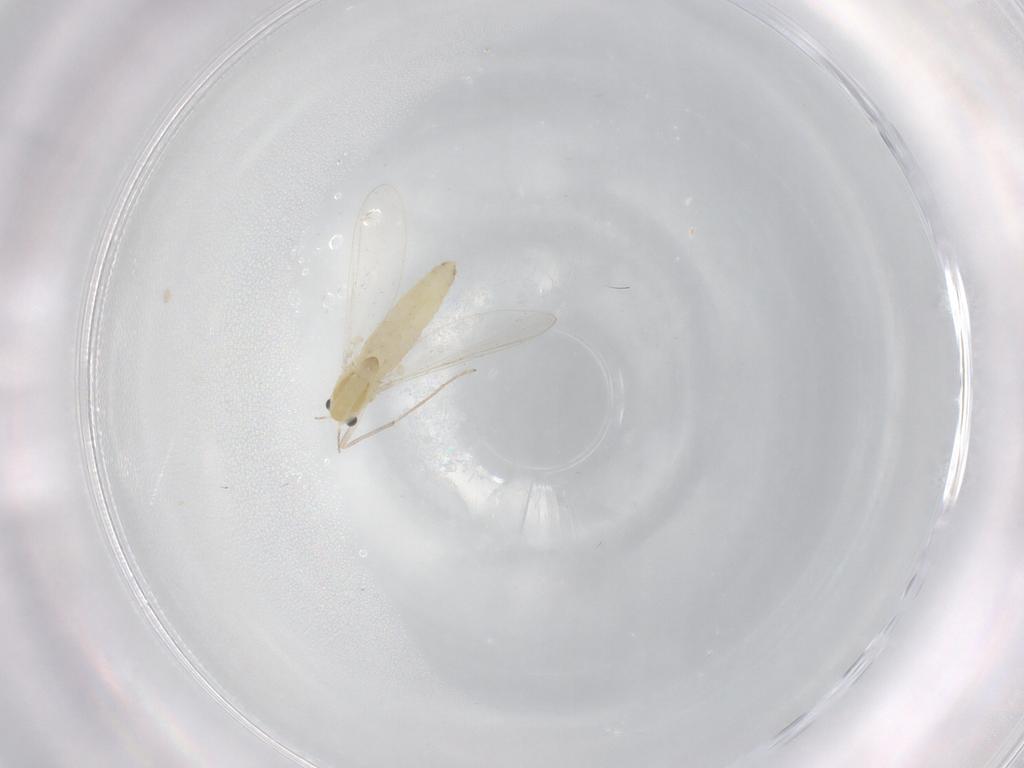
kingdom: Animalia
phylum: Arthropoda
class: Insecta
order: Diptera
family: Chironomidae
